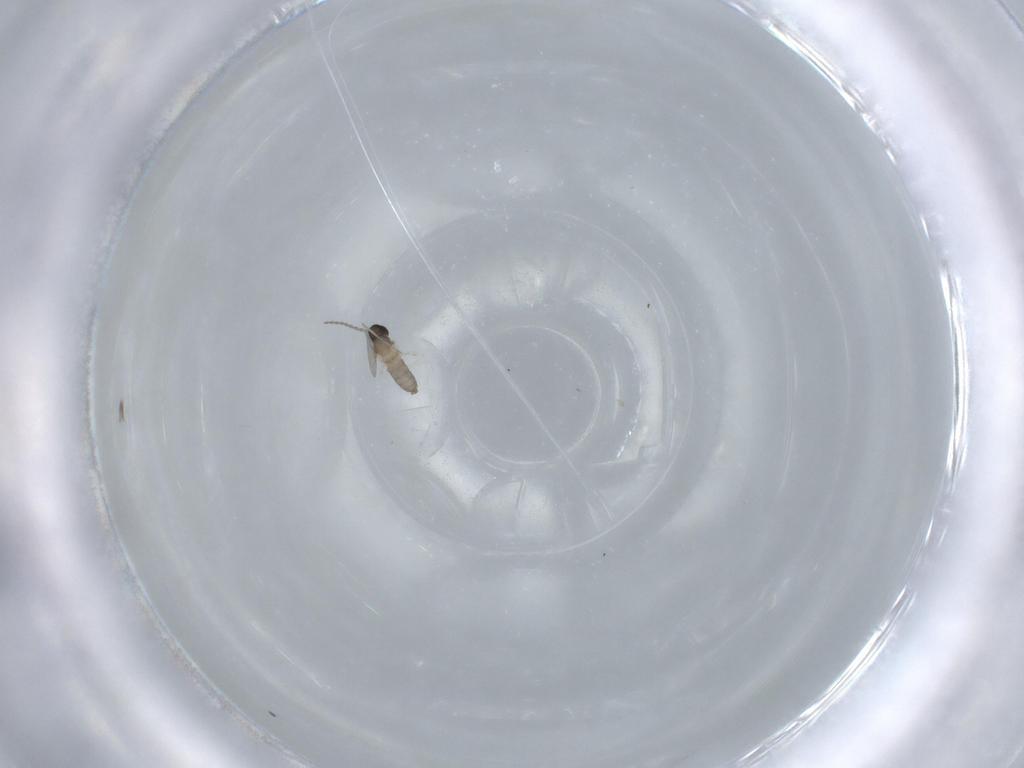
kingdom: Animalia
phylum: Arthropoda
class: Insecta
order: Diptera
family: Cecidomyiidae
